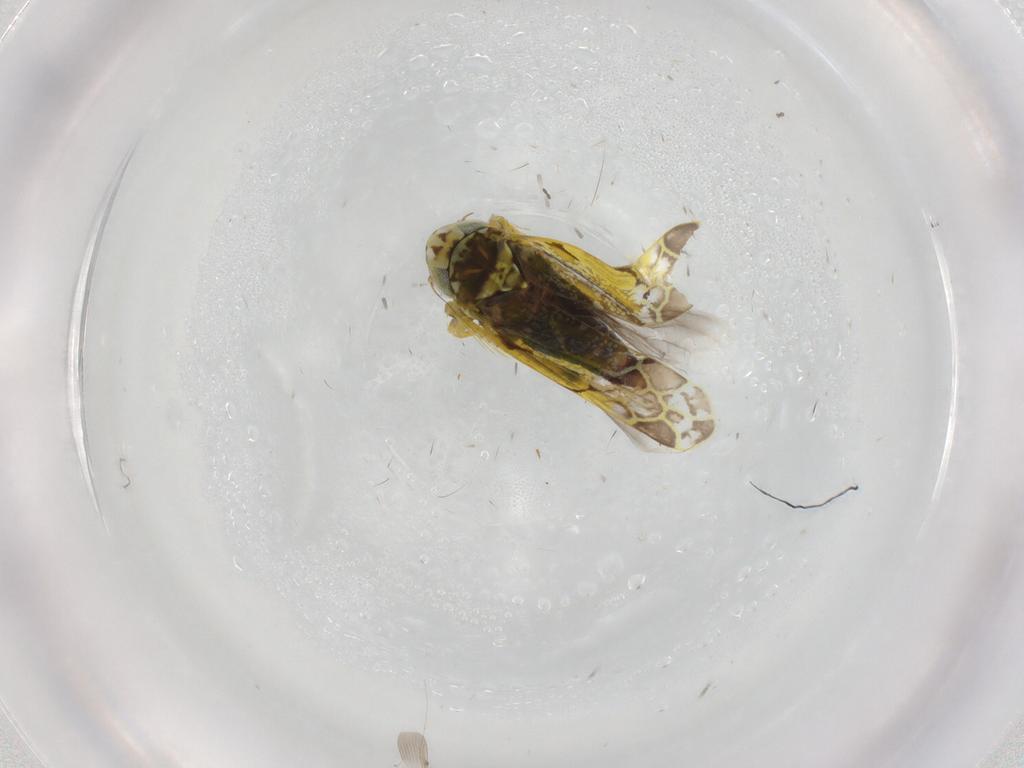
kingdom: Animalia
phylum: Arthropoda
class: Insecta
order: Hemiptera
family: Cicadellidae
